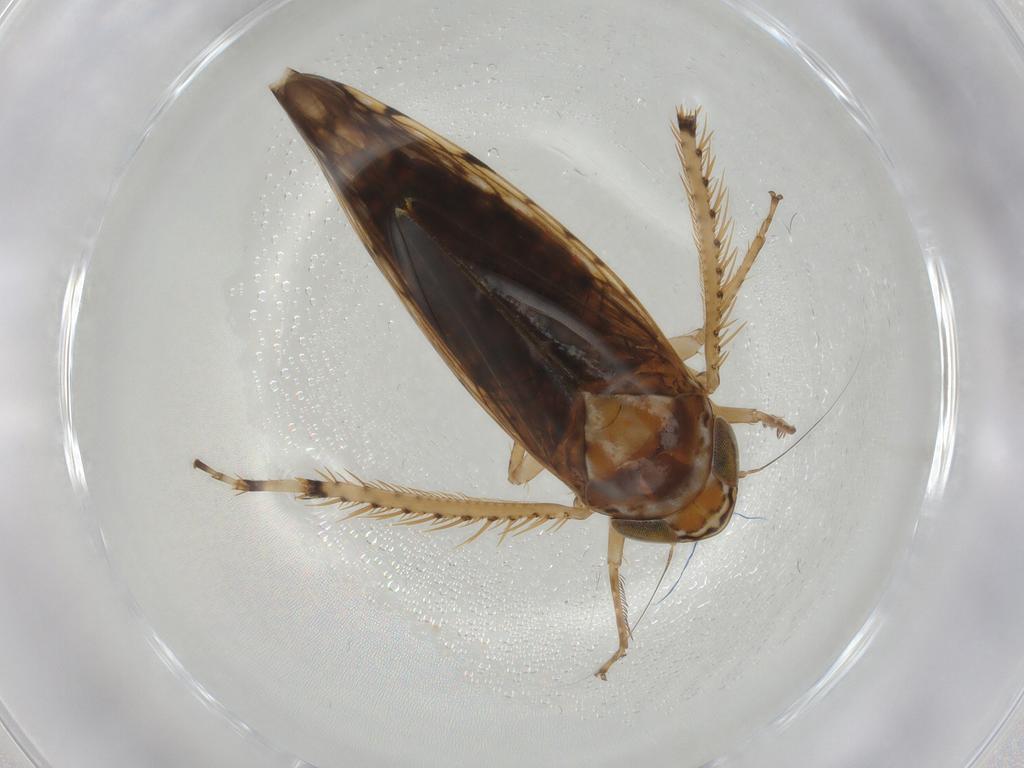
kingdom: Animalia
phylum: Arthropoda
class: Insecta
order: Hemiptera
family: Cicadellidae
